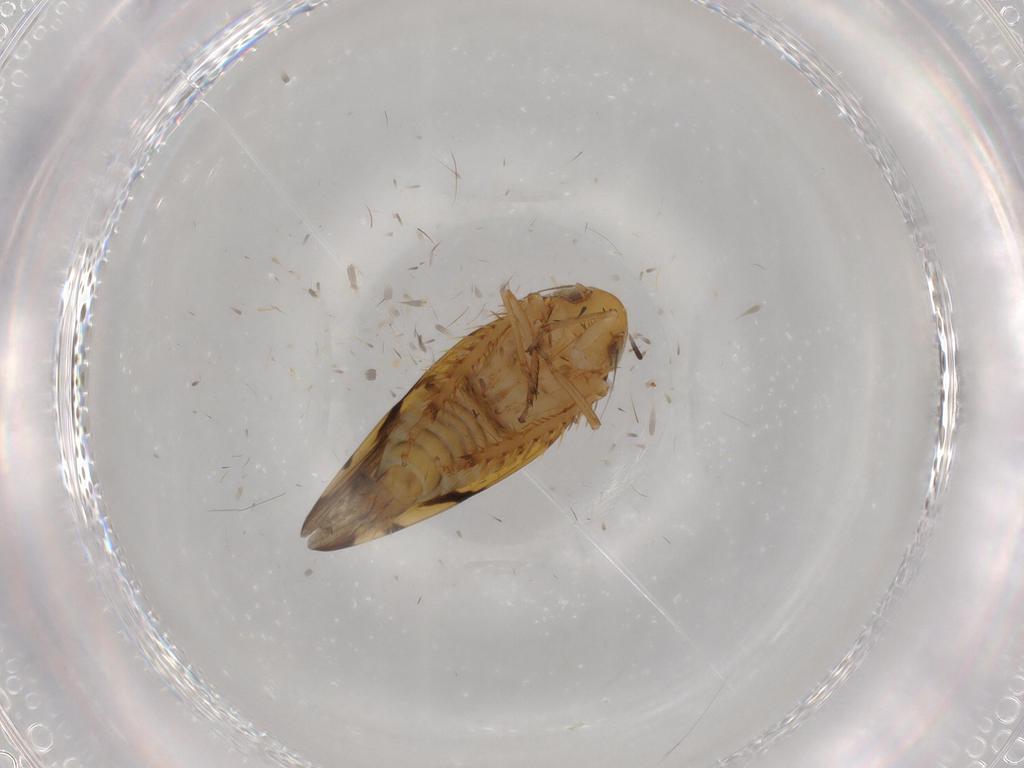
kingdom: Animalia
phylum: Arthropoda
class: Insecta
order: Hemiptera
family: Cicadellidae
